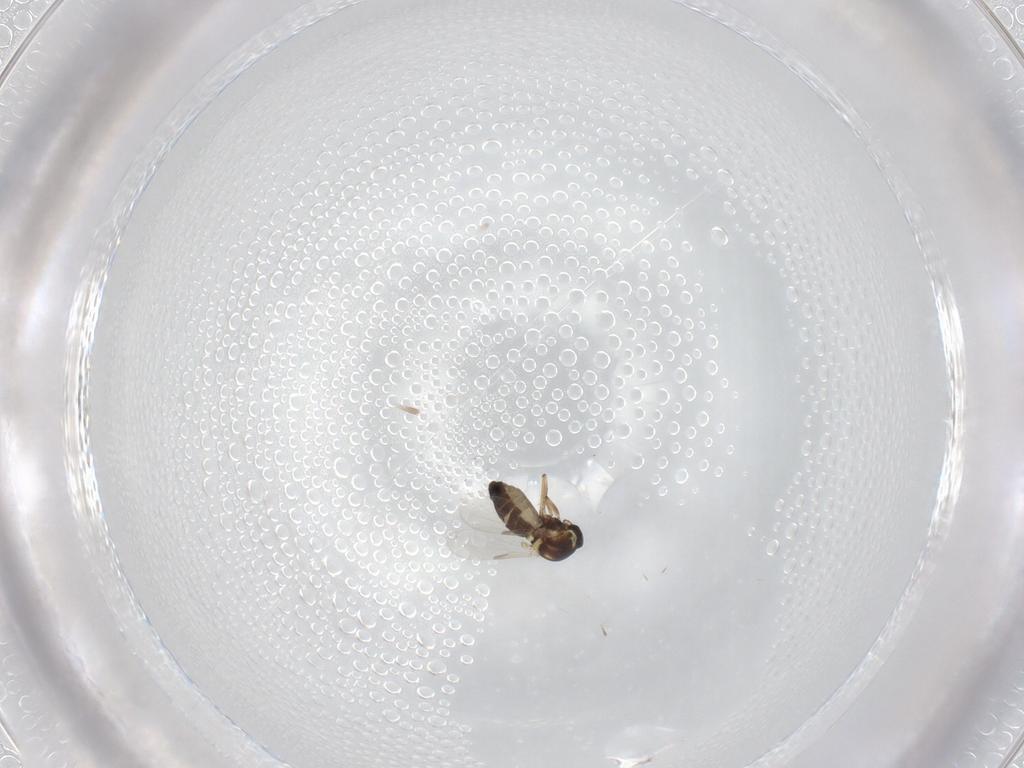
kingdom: Animalia
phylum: Arthropoda
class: Insecta
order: Diptera
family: Ceratopogonidae
